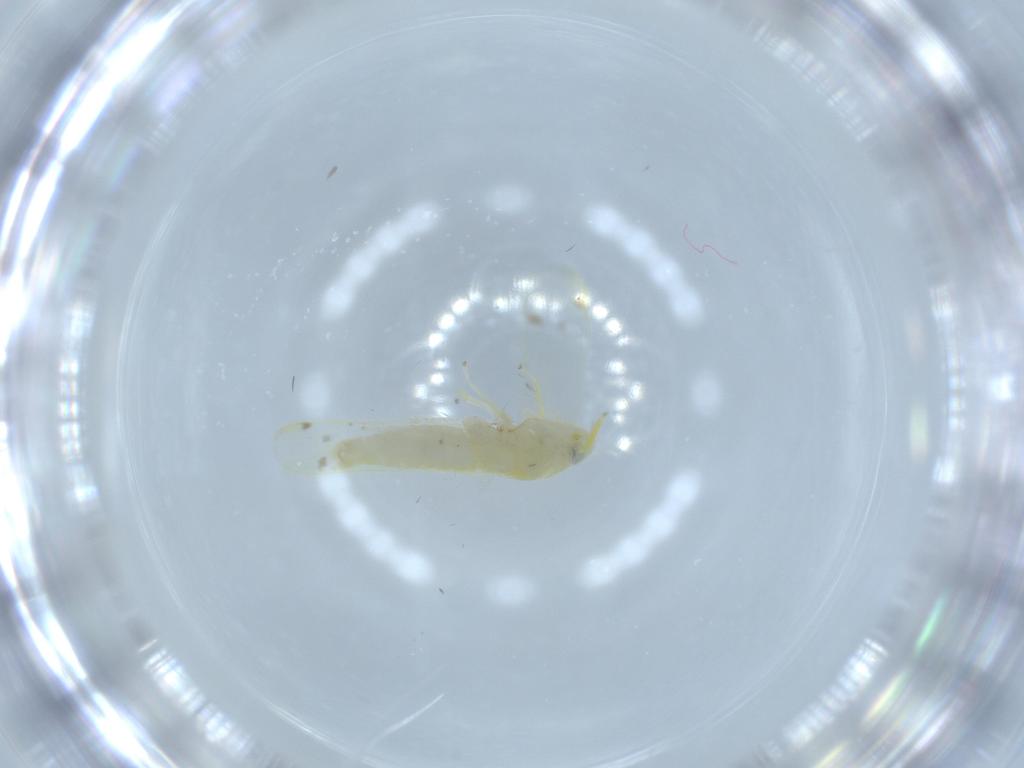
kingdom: Animalia
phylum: Arthropoda
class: Insecta
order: Hemiptera
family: Cicadellidae
